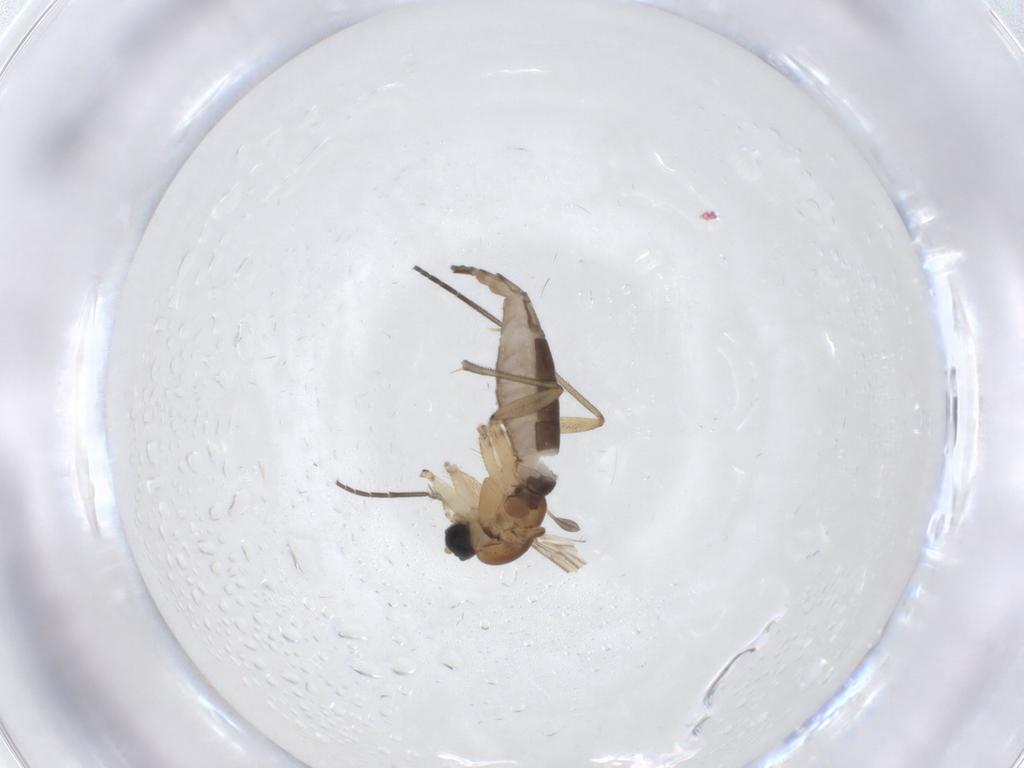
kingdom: Animalia
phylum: Arthropoda
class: Insecta
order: Diptera
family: Sciaridae
